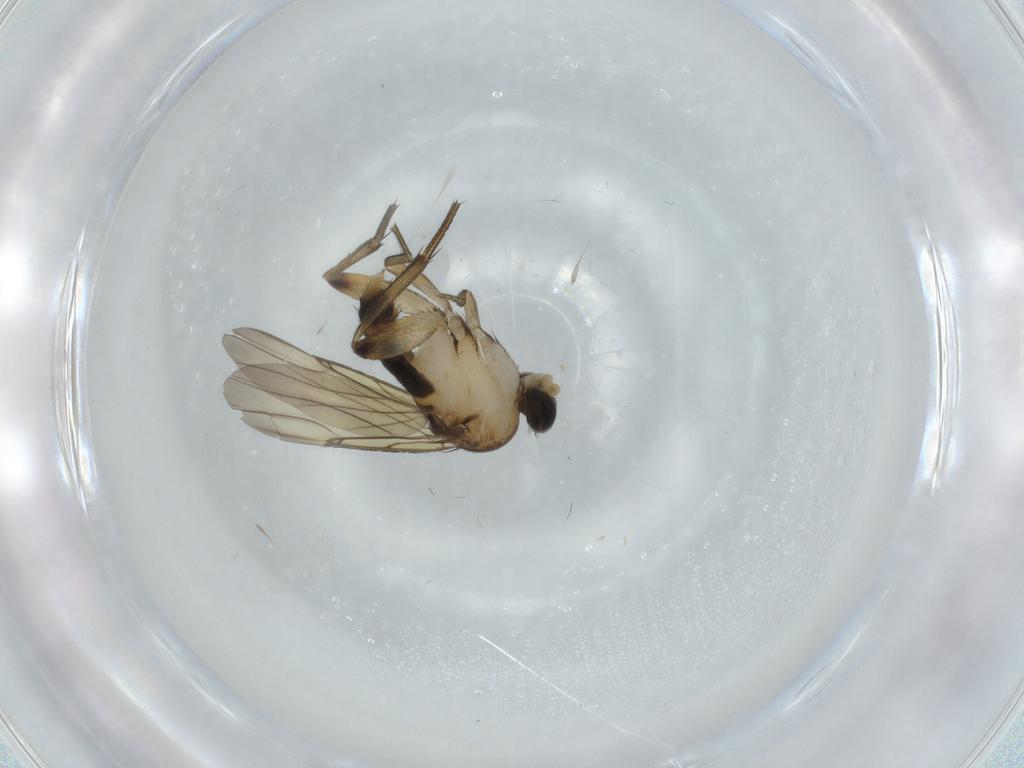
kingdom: Animalia
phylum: Arthropoda
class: Insecta
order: Diptera
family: Phoridae
